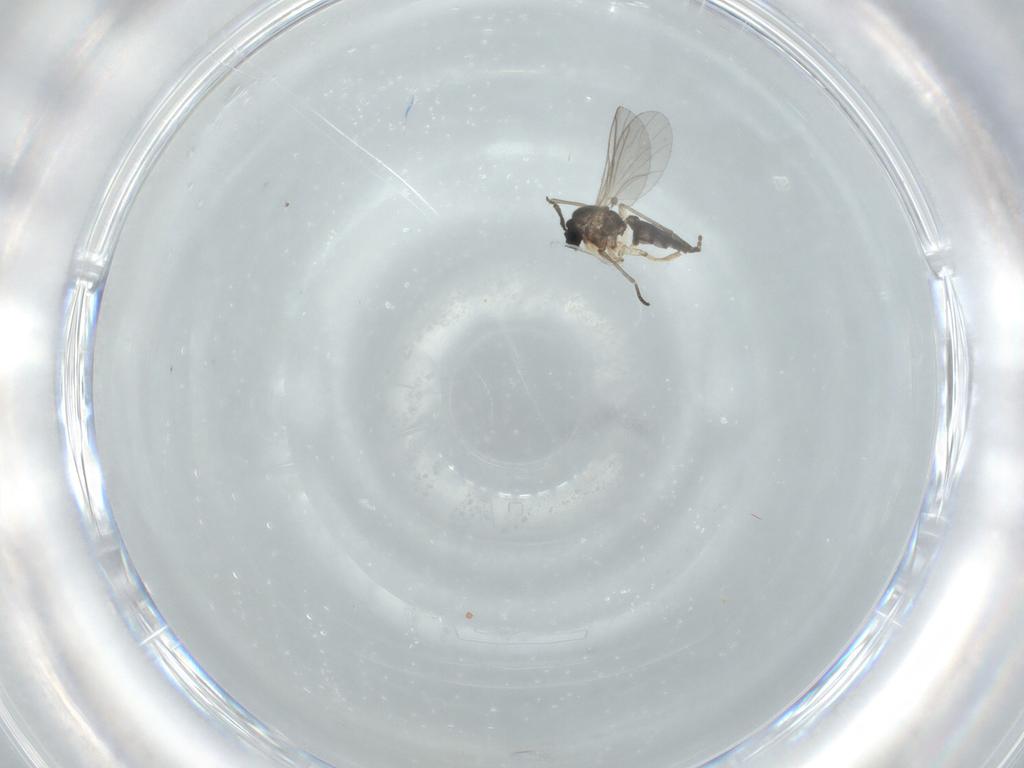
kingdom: Animalia
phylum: Arthropoda
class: Insecta
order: Diptera
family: Sciaridae
